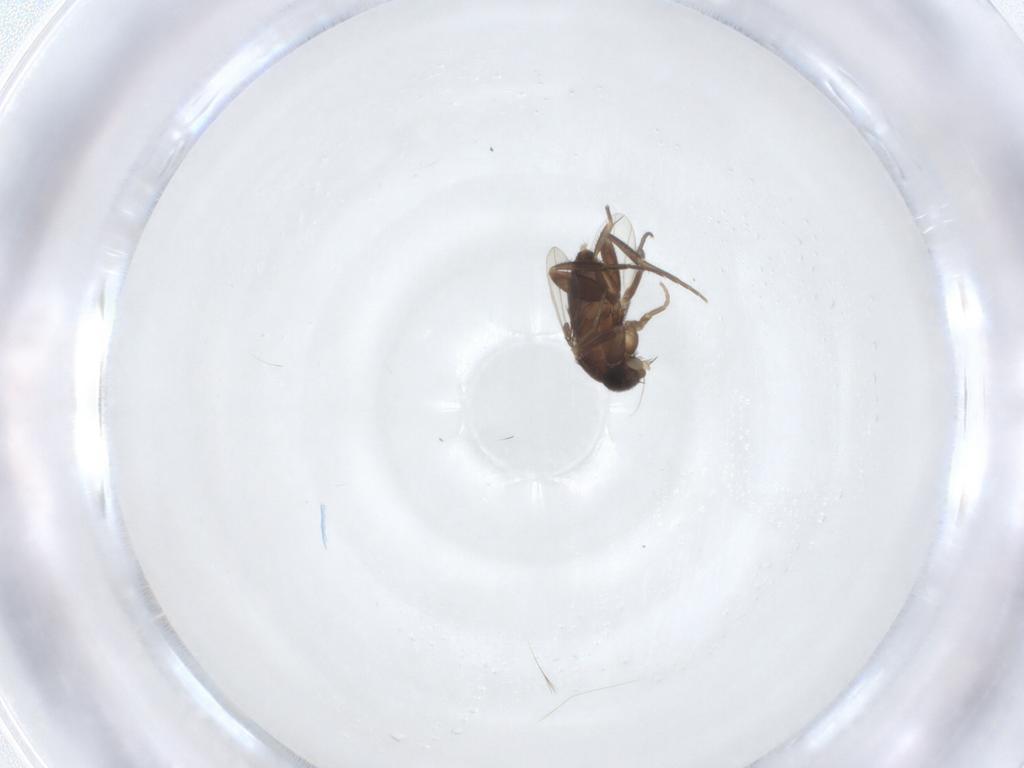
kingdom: Animalia
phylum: Arthropoda
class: Insecta
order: Diptera
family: Phoridae
